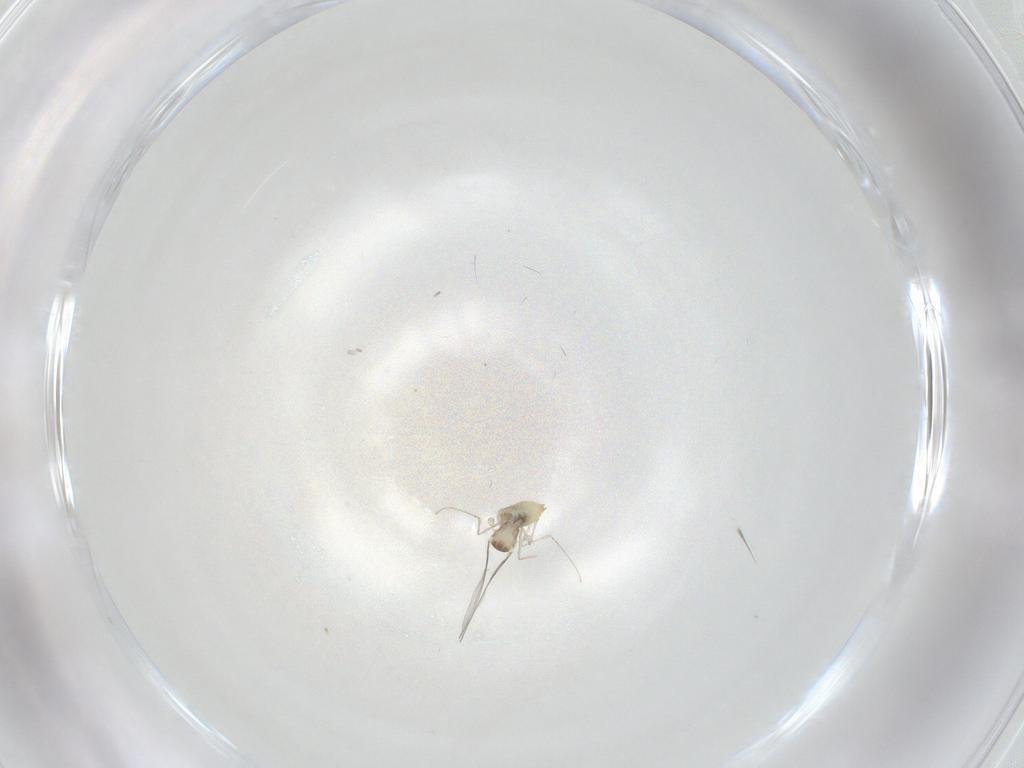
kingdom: Animalia
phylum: Arthropoda
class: Insecta
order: Diptera
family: Cecidomyiidae
